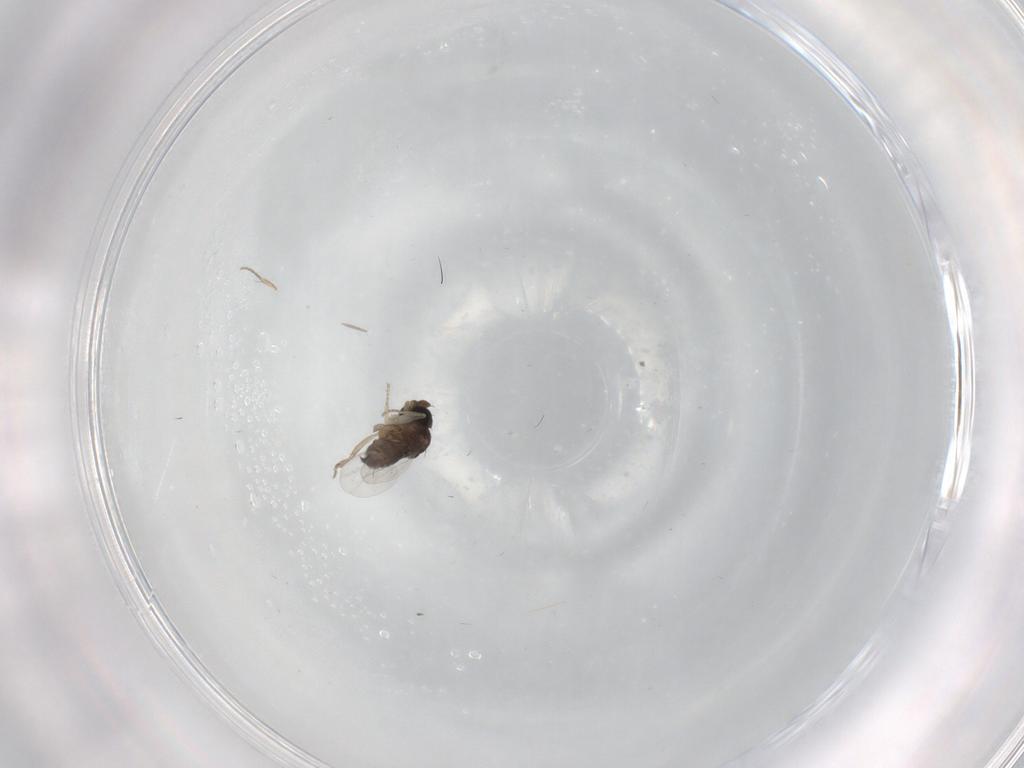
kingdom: Animalia
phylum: Arthropoda
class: Insecta
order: Diptera
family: Phoridae
